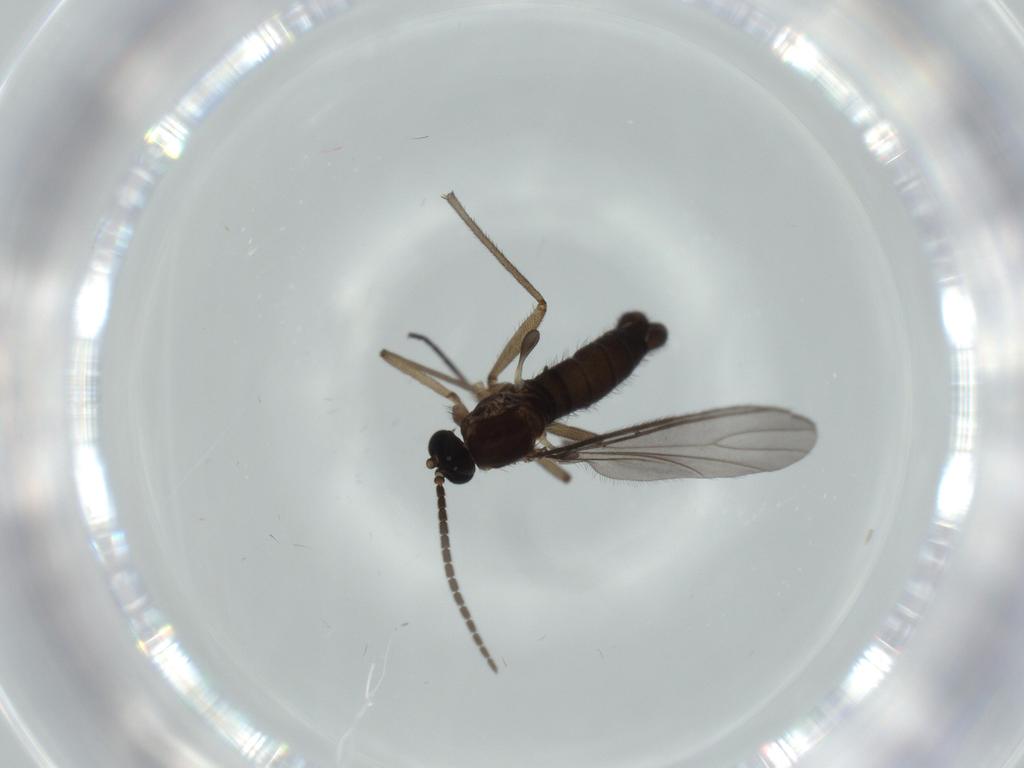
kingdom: Animalia
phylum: Arthropoda
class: Insecta
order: Diptera
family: Sciaridae
